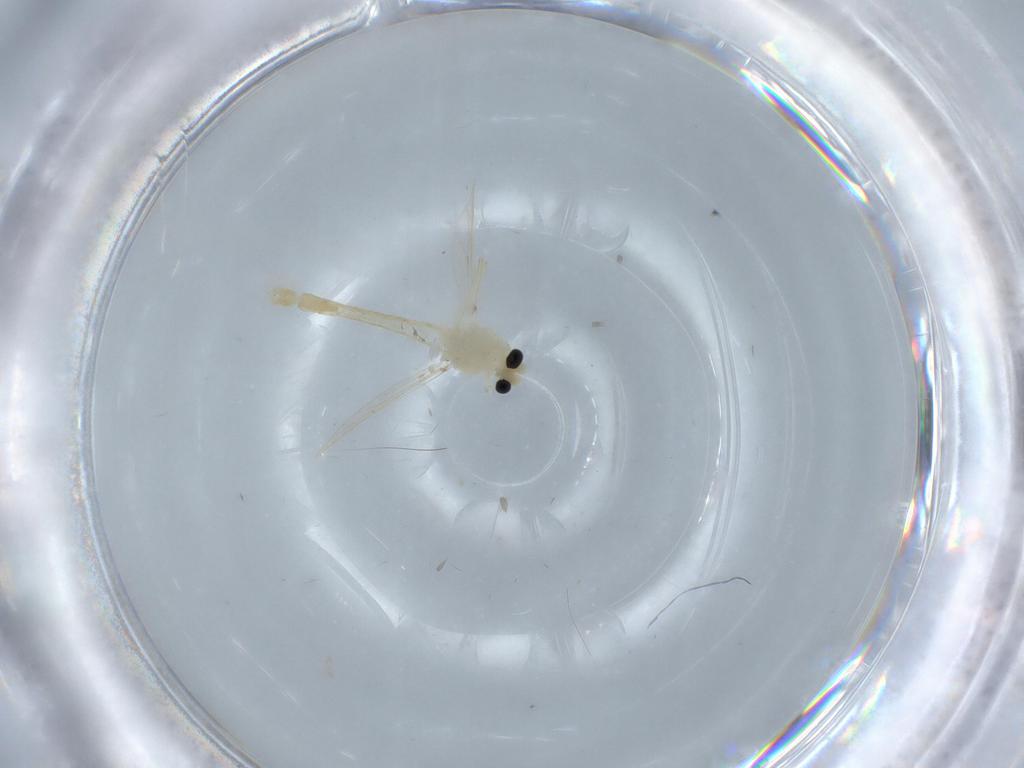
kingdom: Animalia
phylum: Arthropoda
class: Insecta
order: Diptera
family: Chironomidae
